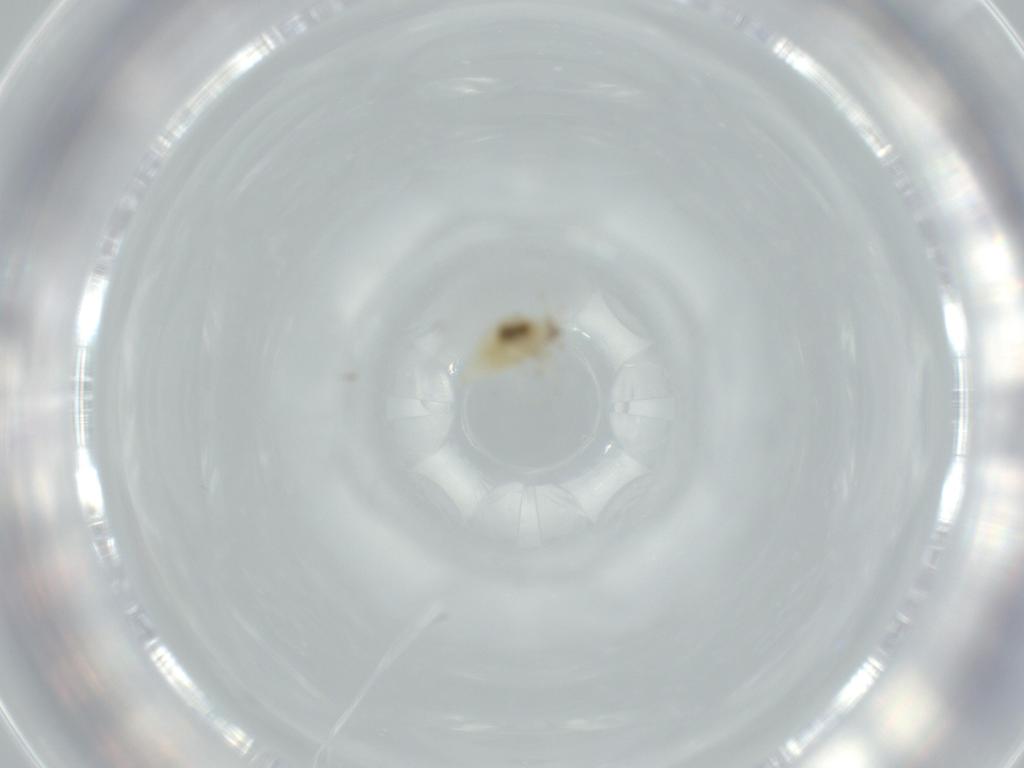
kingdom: Animalia
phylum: Arthropoda
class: Insecta
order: Neuroptera
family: Coniopterygidae
